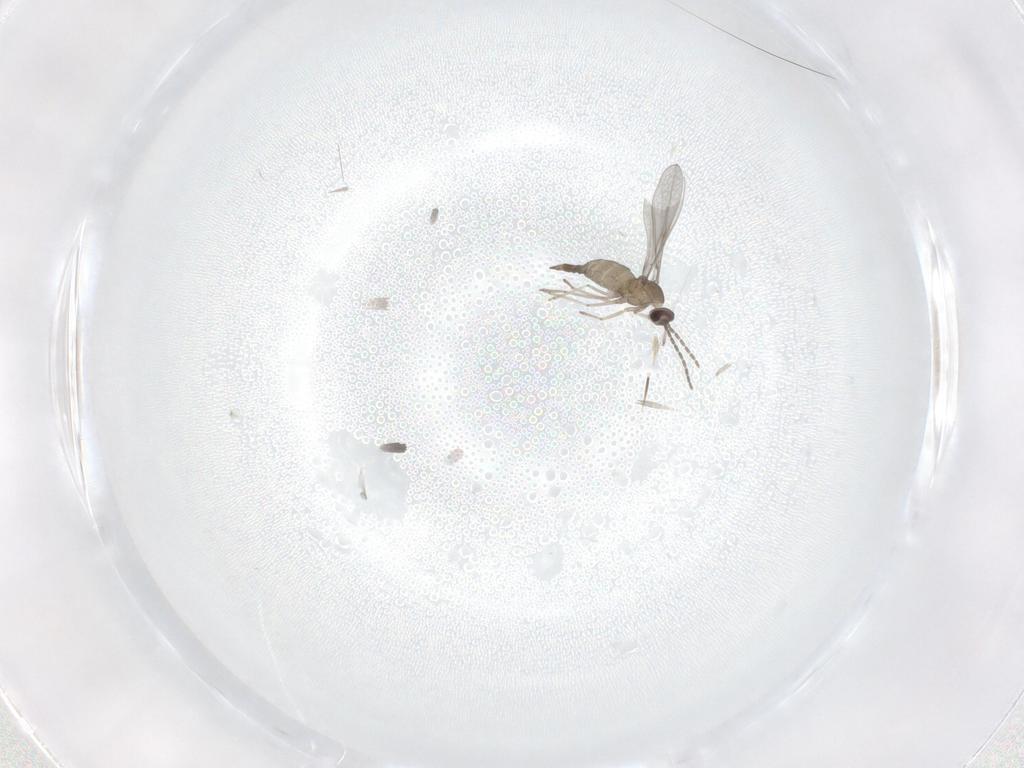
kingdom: Animalia
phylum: Arthropoda
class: Insecta
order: Diptera
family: Cecidomyiidae
